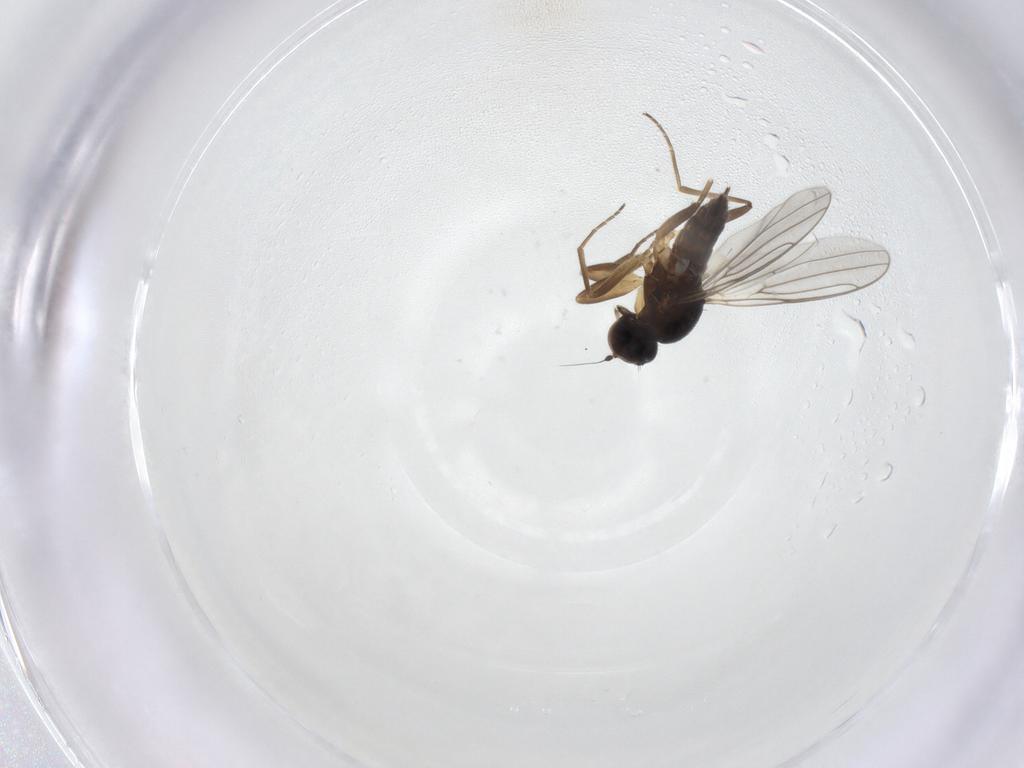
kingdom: Animalia
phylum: Arthropoda
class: Insecta
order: Diptera
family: Hybotidae
